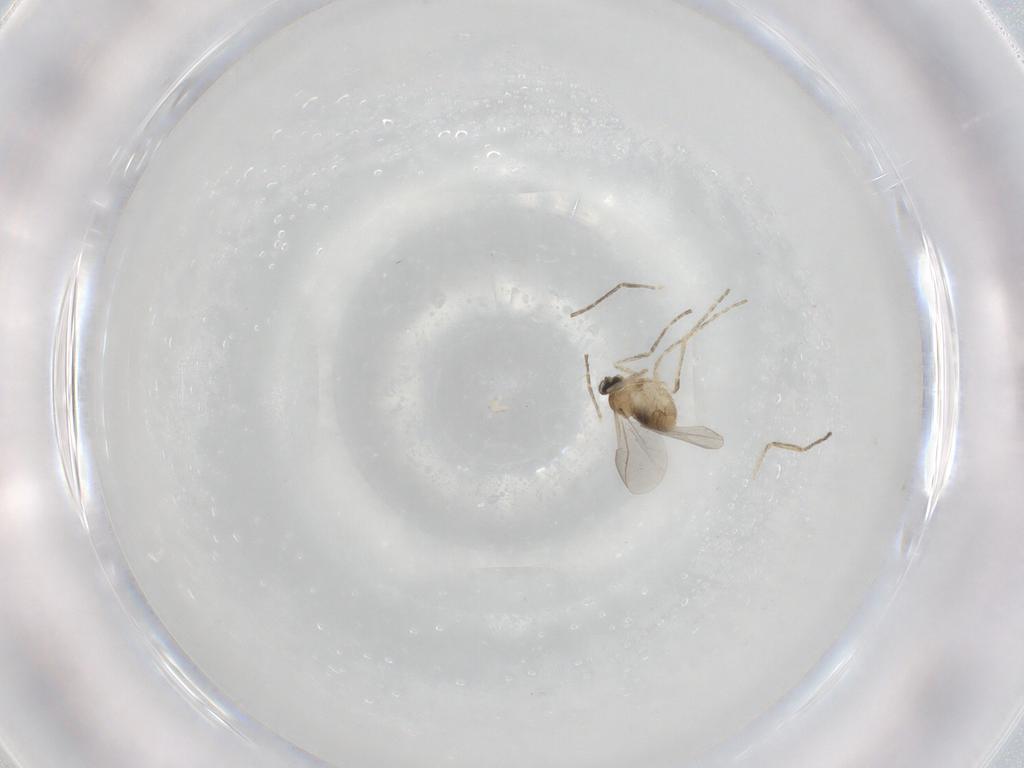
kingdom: Animalia
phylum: Arthropoda
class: Insecta
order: Diptera
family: Cecidomyiidae
